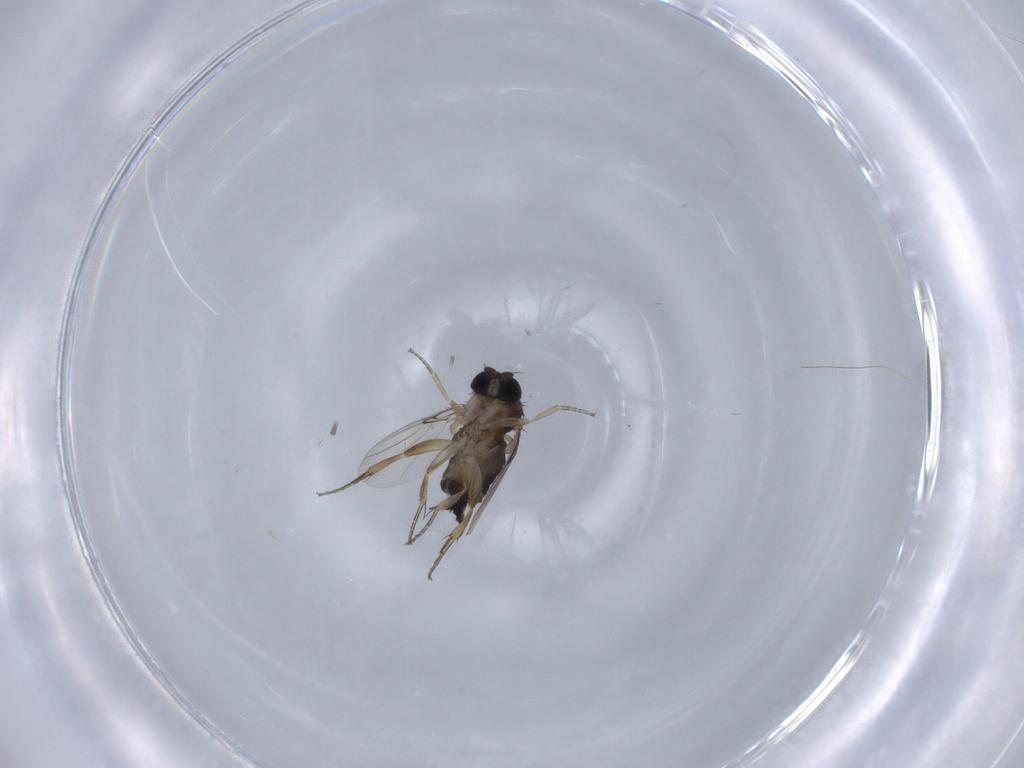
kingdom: Animalia
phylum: Arthropoda
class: Insecta
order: Diptera
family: Phoridae
